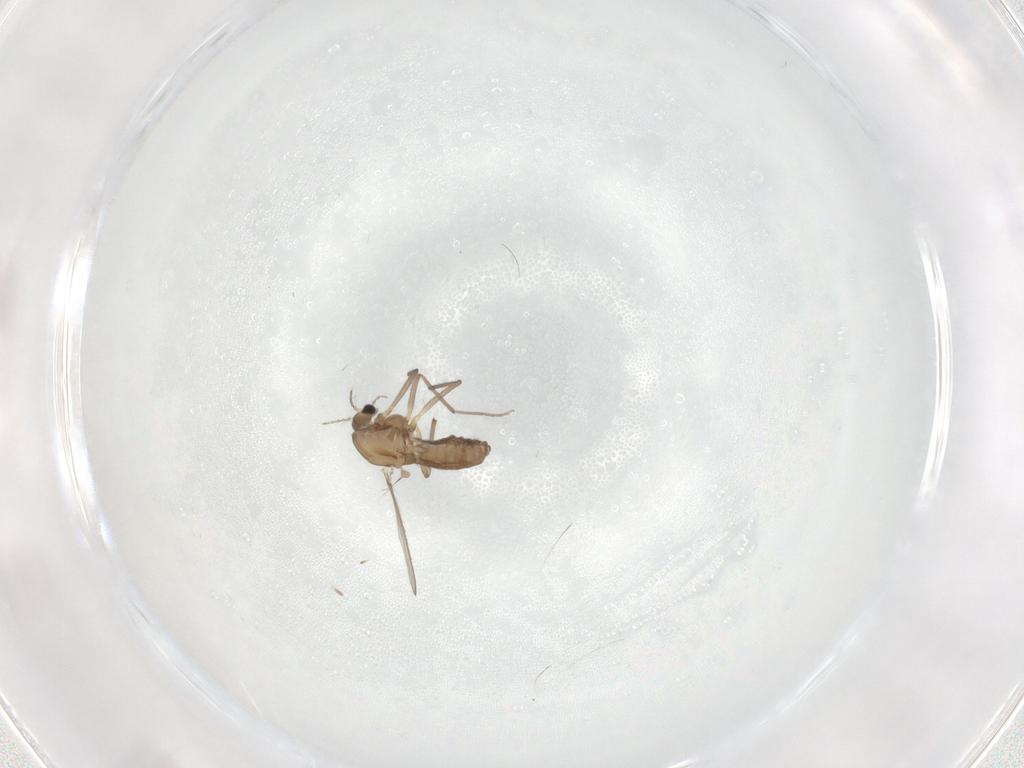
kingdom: Animalia
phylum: Arthropoda
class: Insecta
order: Diptera
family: Chironomidae
